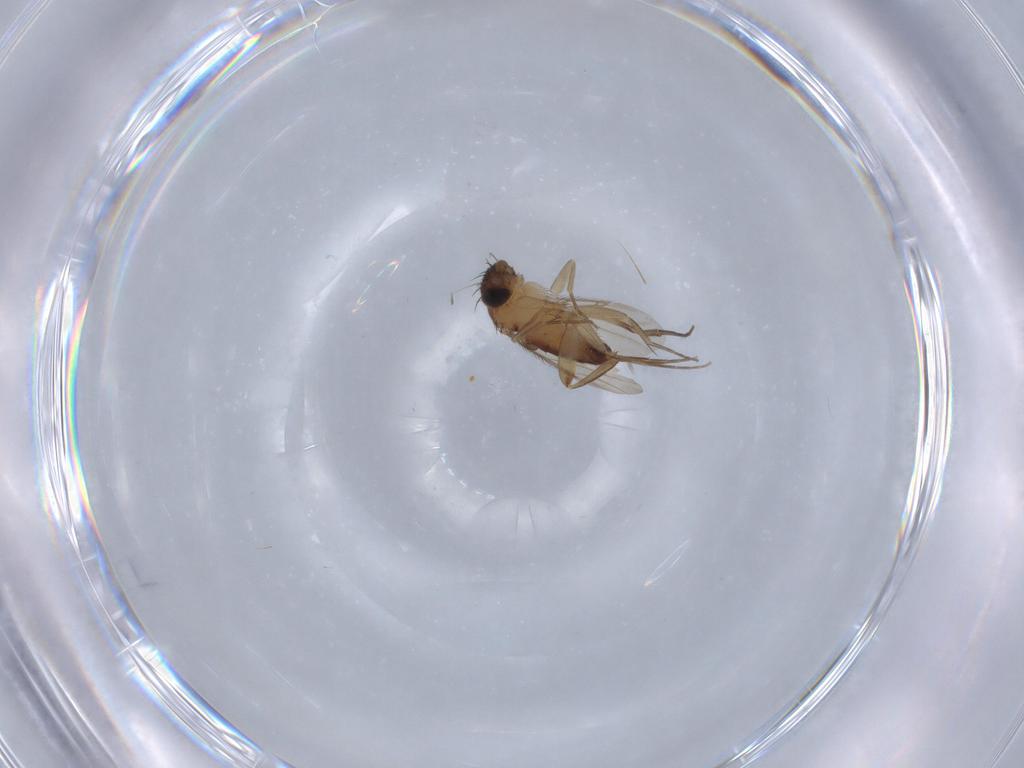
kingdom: Animalia
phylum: Arthropoda
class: Insecta
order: Diptera
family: Phoridae
